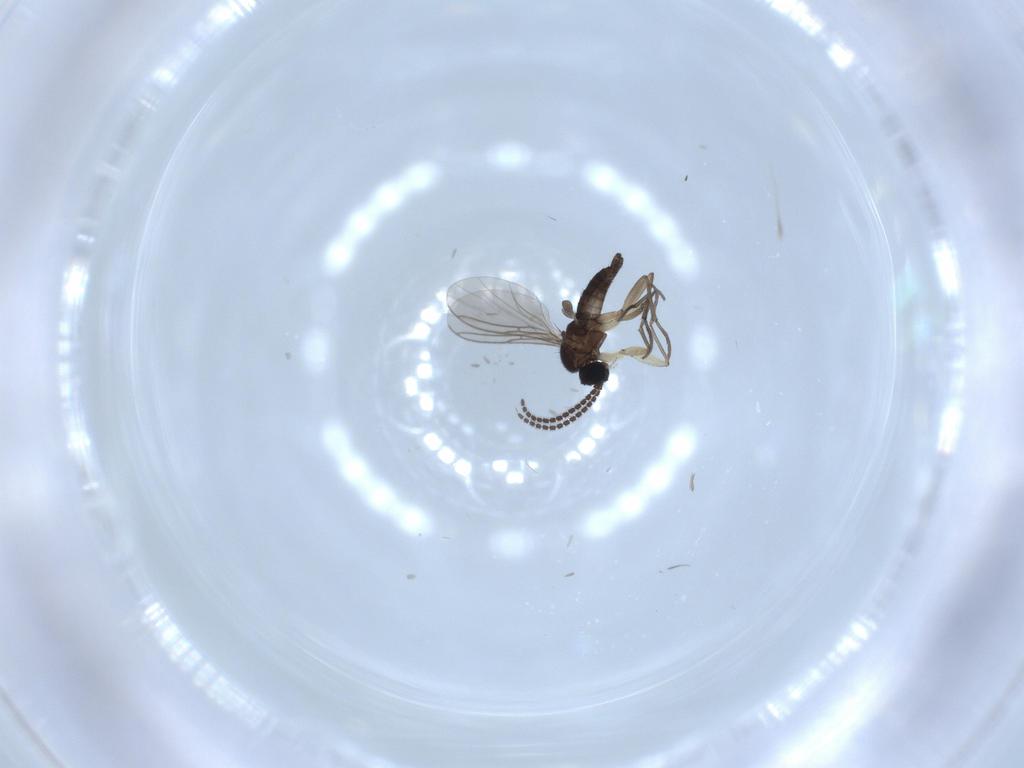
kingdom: Animalia
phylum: Arthropoda
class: Insecta
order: Diptera
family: Sciaridae
